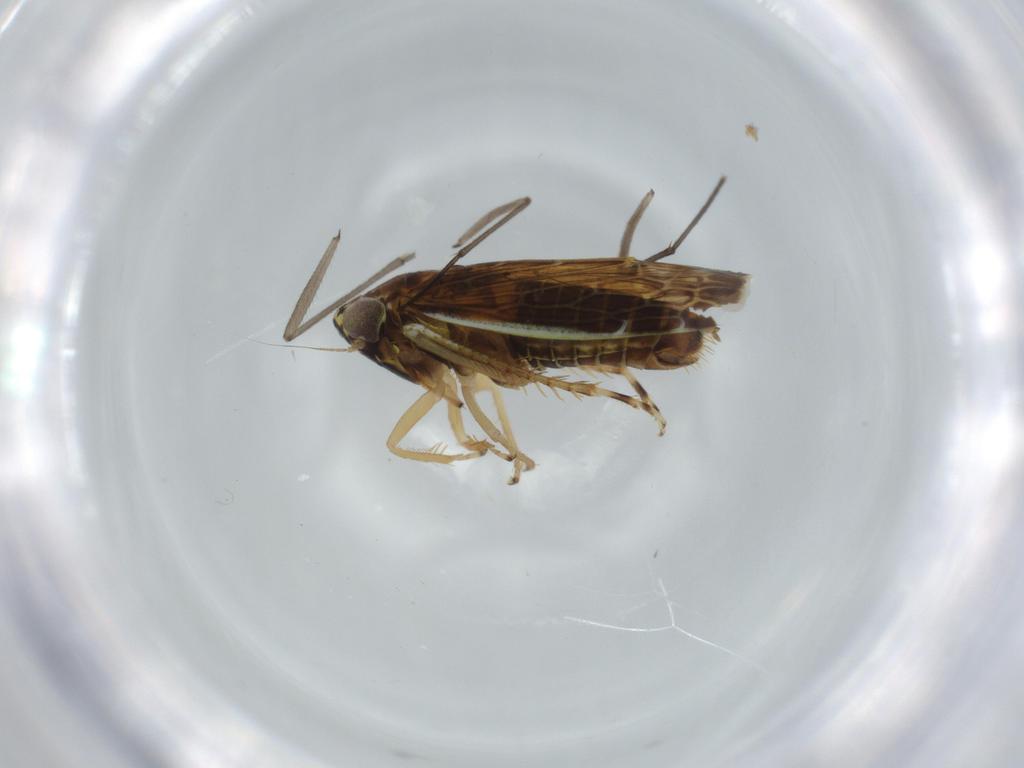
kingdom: Animalia
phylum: Arthropoda
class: Insecta
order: Hemiptera
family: Cicadellidae
